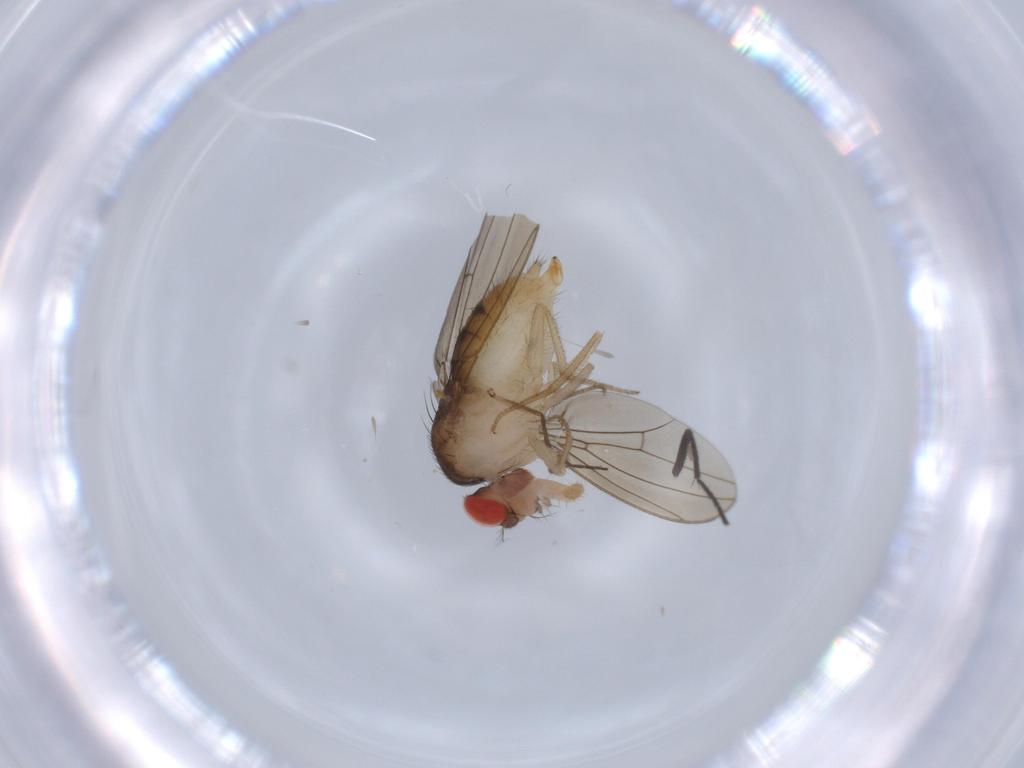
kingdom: Animalia
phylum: Arthropoda
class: Insecta
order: Diptera
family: Drosophilidae
